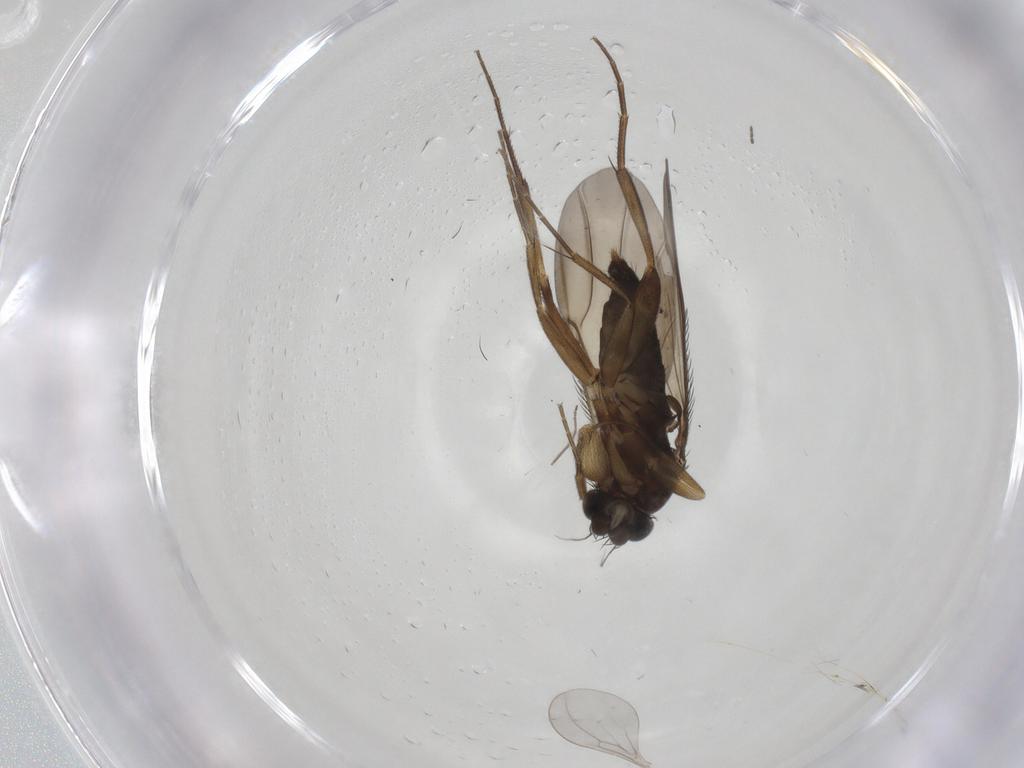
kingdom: Animalia
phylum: Arthropoda
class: Insecta
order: Diptera
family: Phoridae
